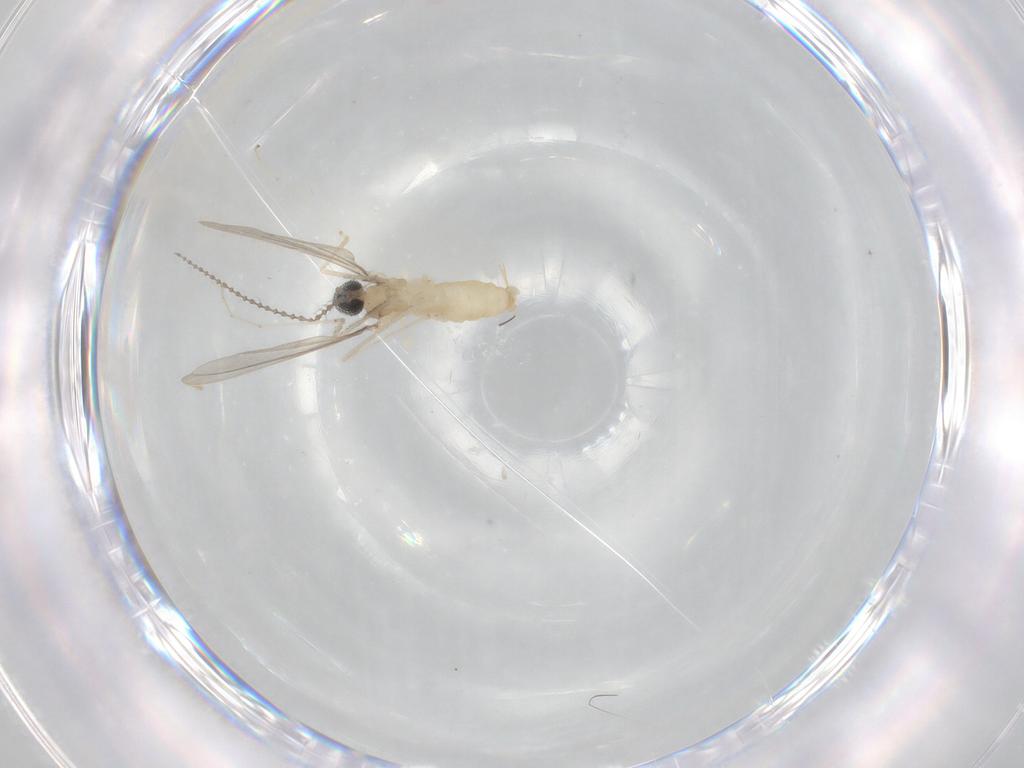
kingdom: Animalia
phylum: Arthropoda
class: Insecta
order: Diptera
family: Cecidomyiidae
